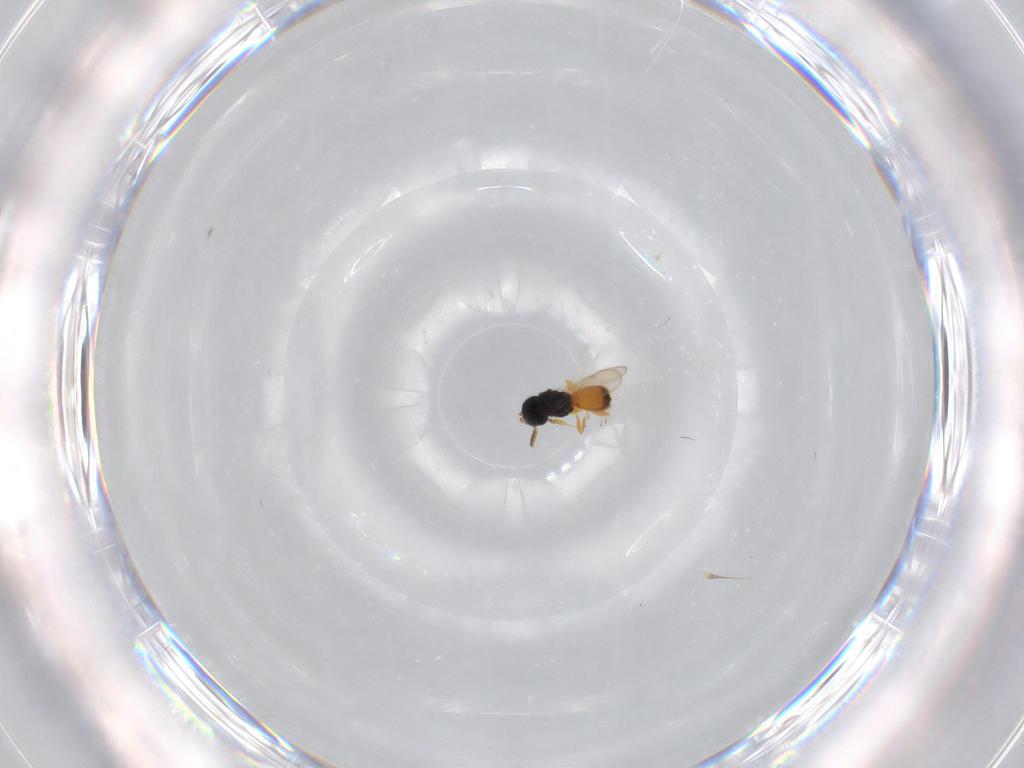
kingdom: Animalia
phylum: Arthropoda
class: Insecta
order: Hymenoptera
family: Scelionidae
